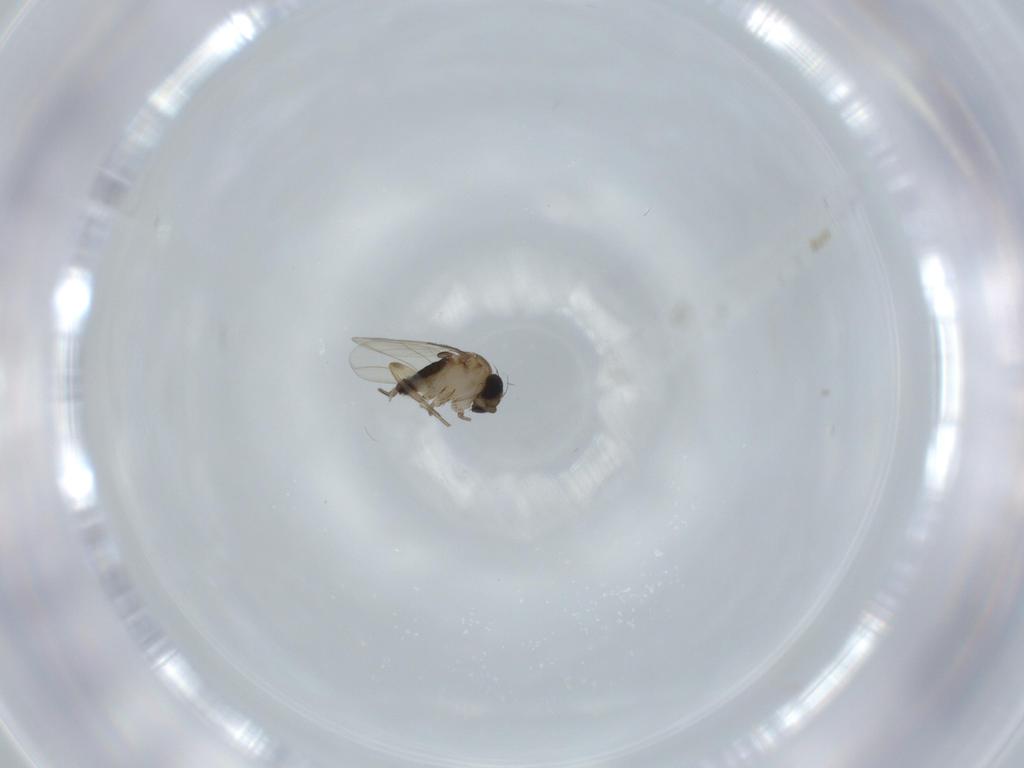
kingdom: Animalia
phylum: Arthropoda
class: Insecta
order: Diptera
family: Phoridae
